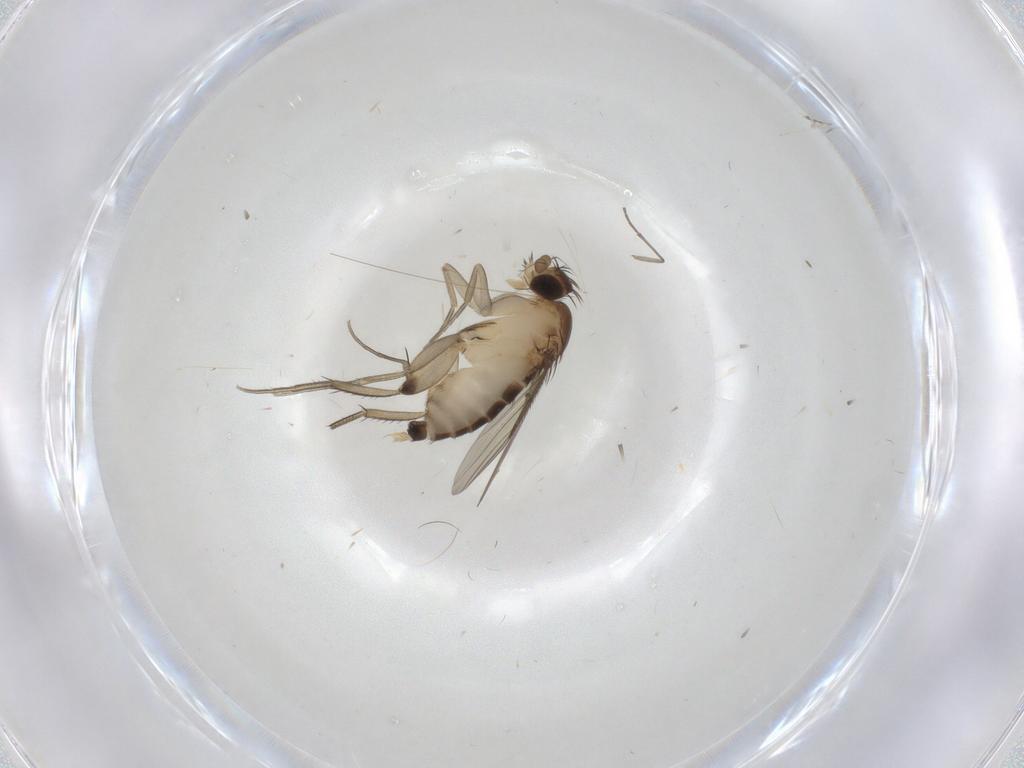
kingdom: Animalia
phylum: Arthropoda
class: Insecta
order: Diptera
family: Phoridae
